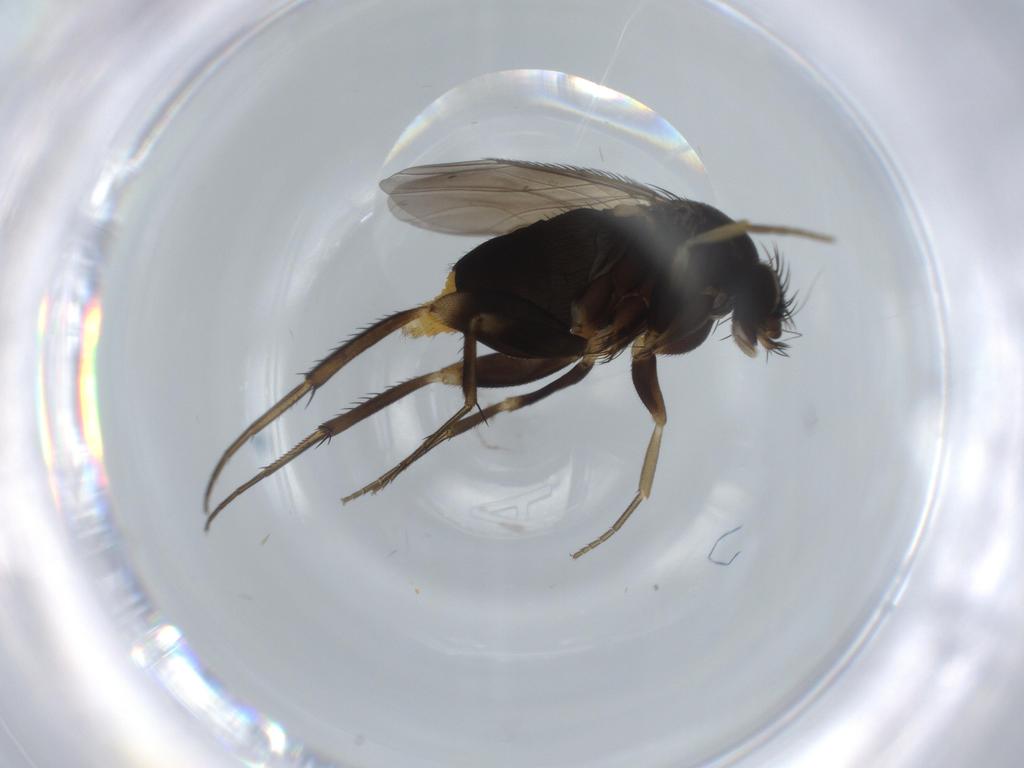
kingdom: Animalia
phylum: Arthropoda
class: Insecta
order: Diptera
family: Phoridae
